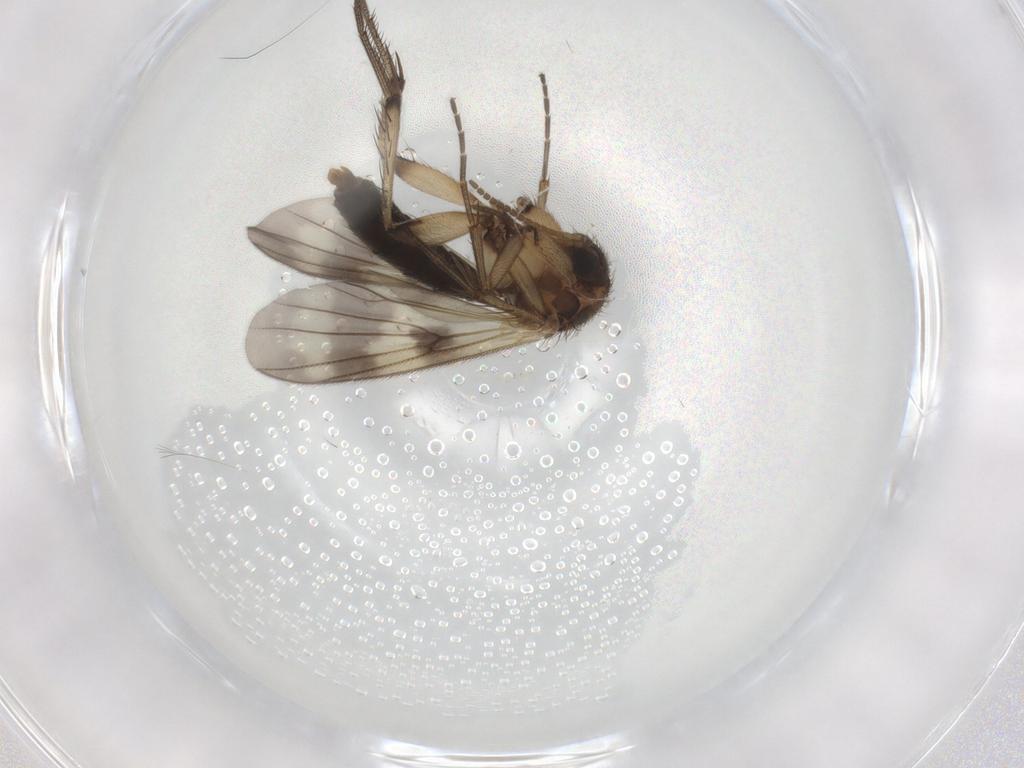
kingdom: Animalia
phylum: Arthropoda
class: Insecta
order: Diptera
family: Mycetophilidae
